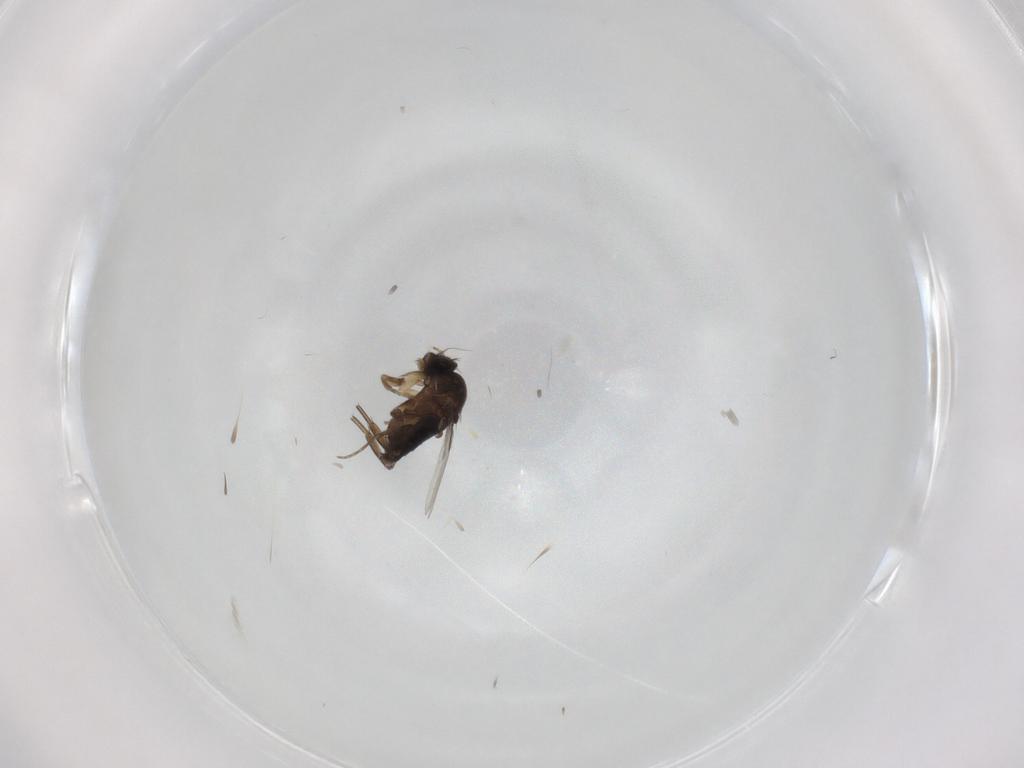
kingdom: Animalia
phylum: Arthropoda
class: Insecta
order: Diptera
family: Phoridae
